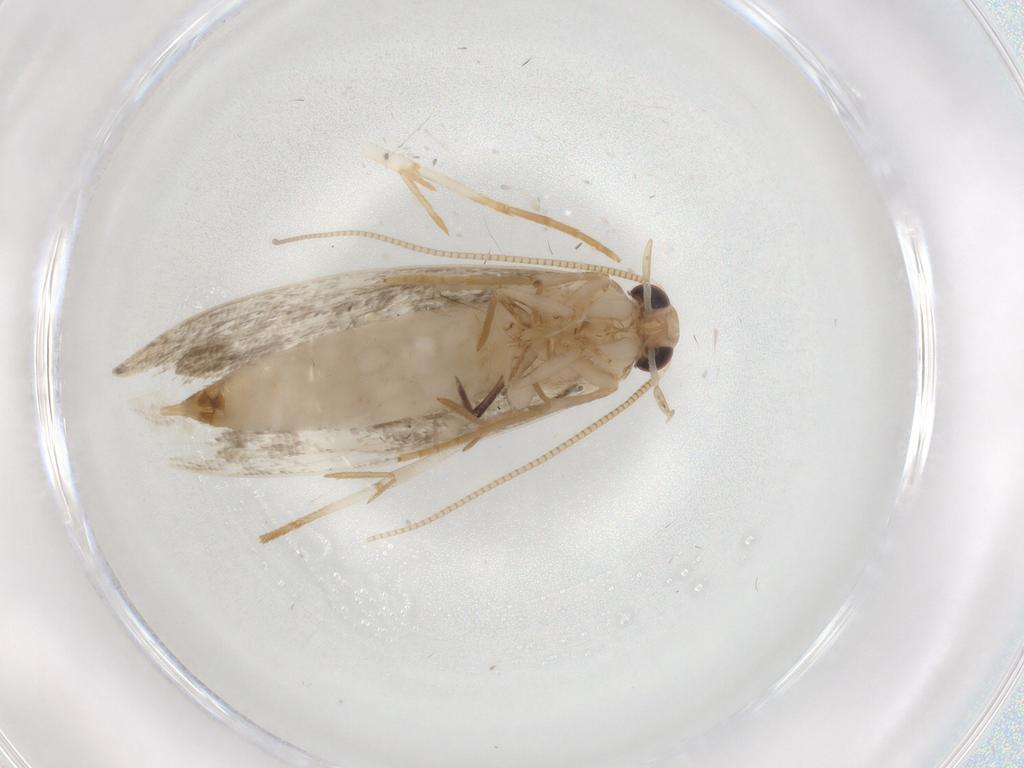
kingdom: Animalia
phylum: Arthropoda
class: Insecta
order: Lepidoptera
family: Tineidae
